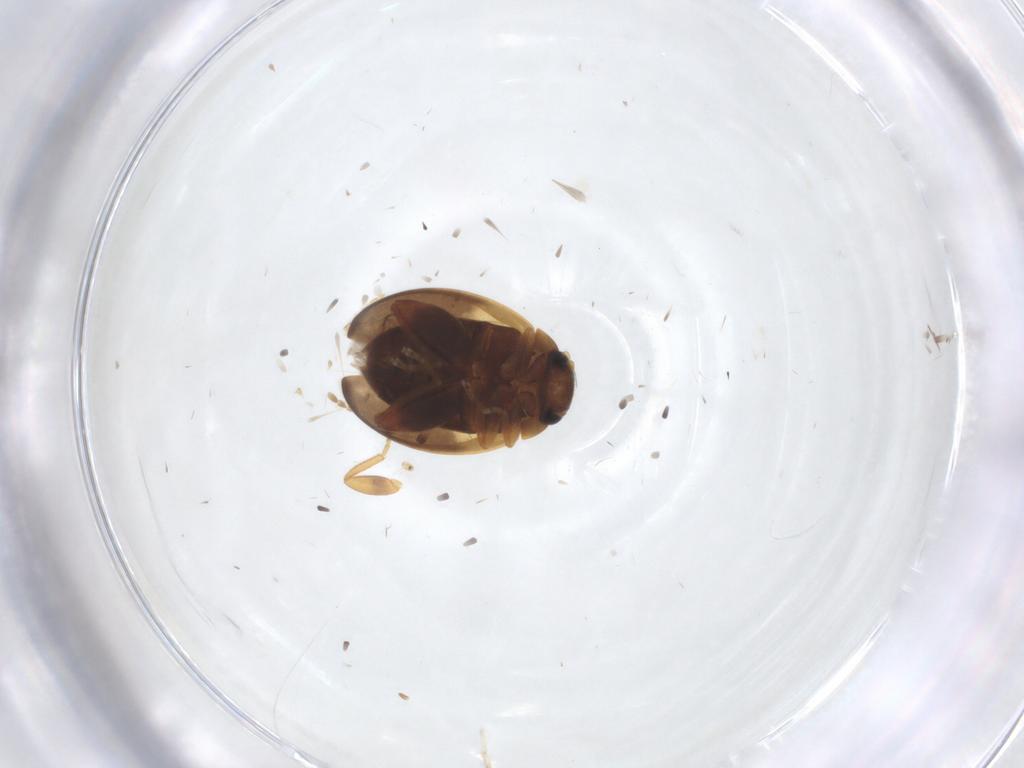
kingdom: Animalia
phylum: Arthropoda
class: Insecta
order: Coleoptera
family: Scirtidae
